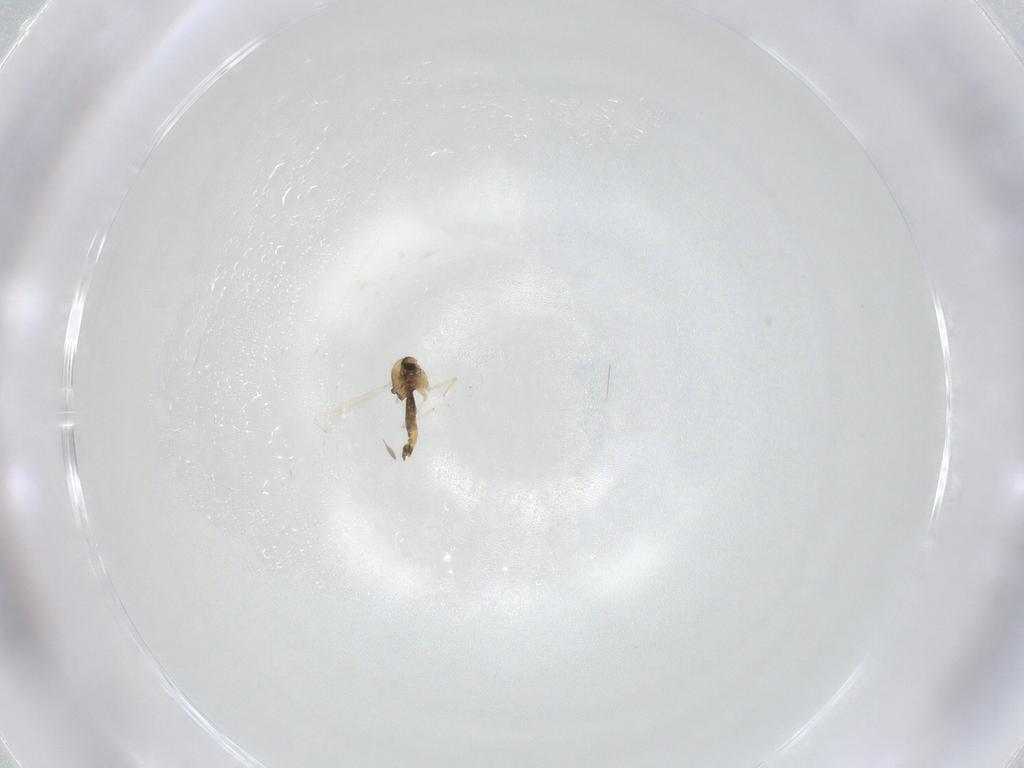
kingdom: Animalia
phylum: Arthropoda
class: Insecta
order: Diptera
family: Chironomidae
